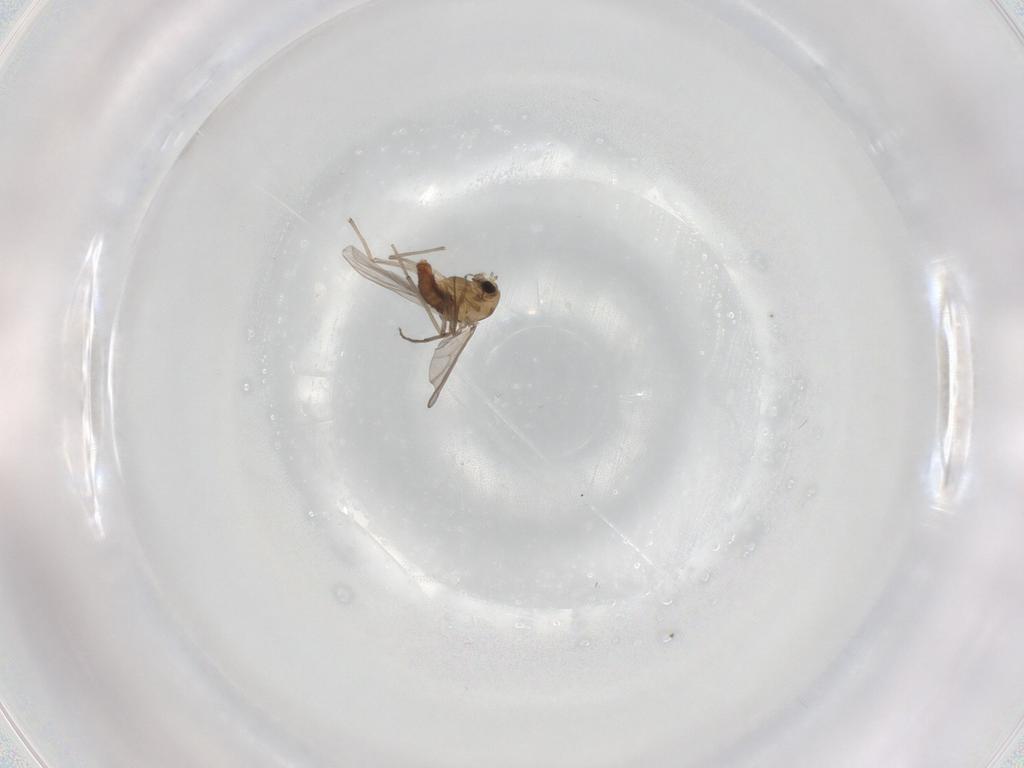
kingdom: Animalia
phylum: Arthropoda
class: Insecta
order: Diptera
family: Chironomidae
